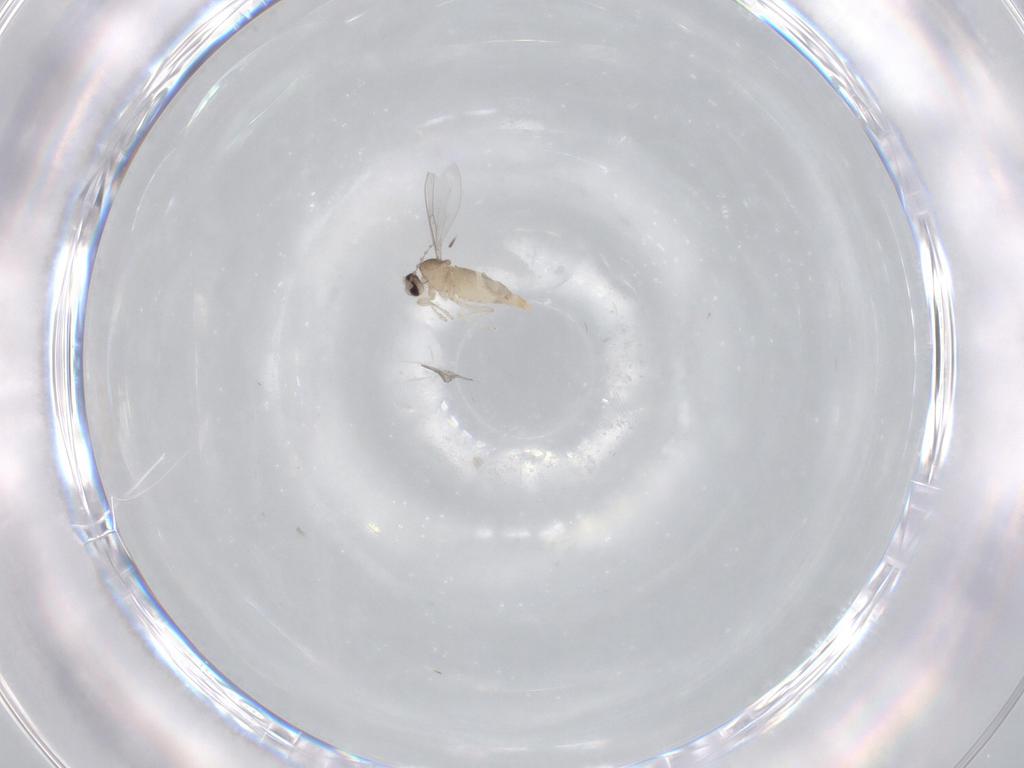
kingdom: Animalia
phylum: Arthropoda
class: Insecta
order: Diptera
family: Cecidomyiidae
